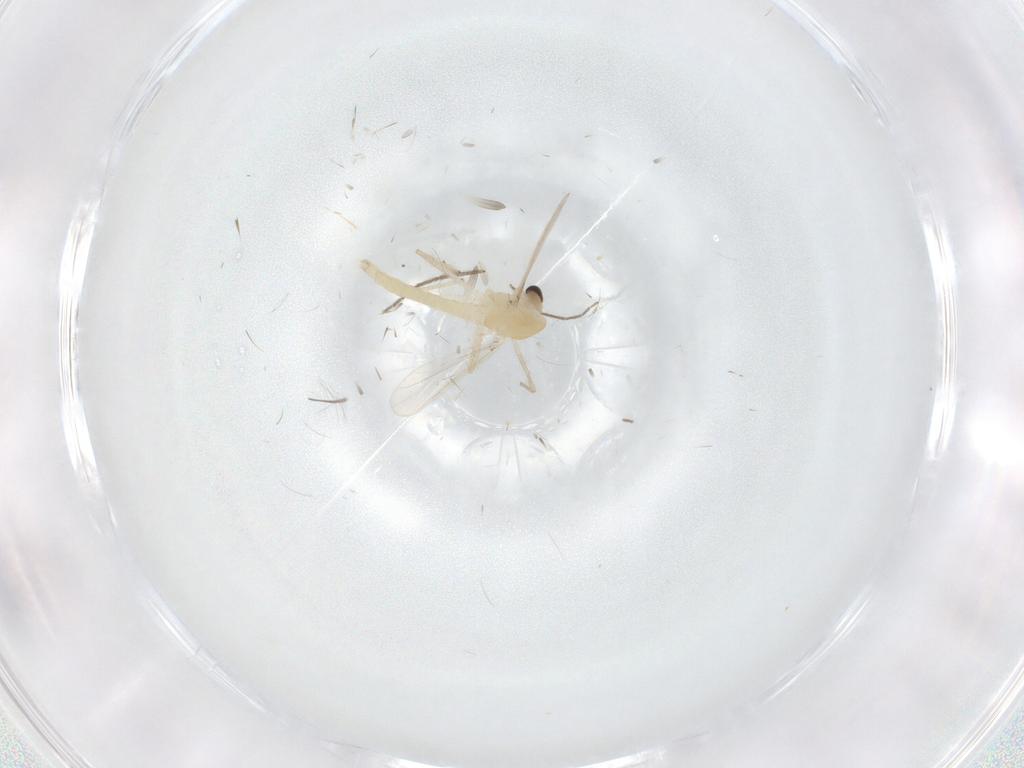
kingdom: Animalia
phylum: Arthropoda
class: Insecta
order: Diptera
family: Chironomidae
